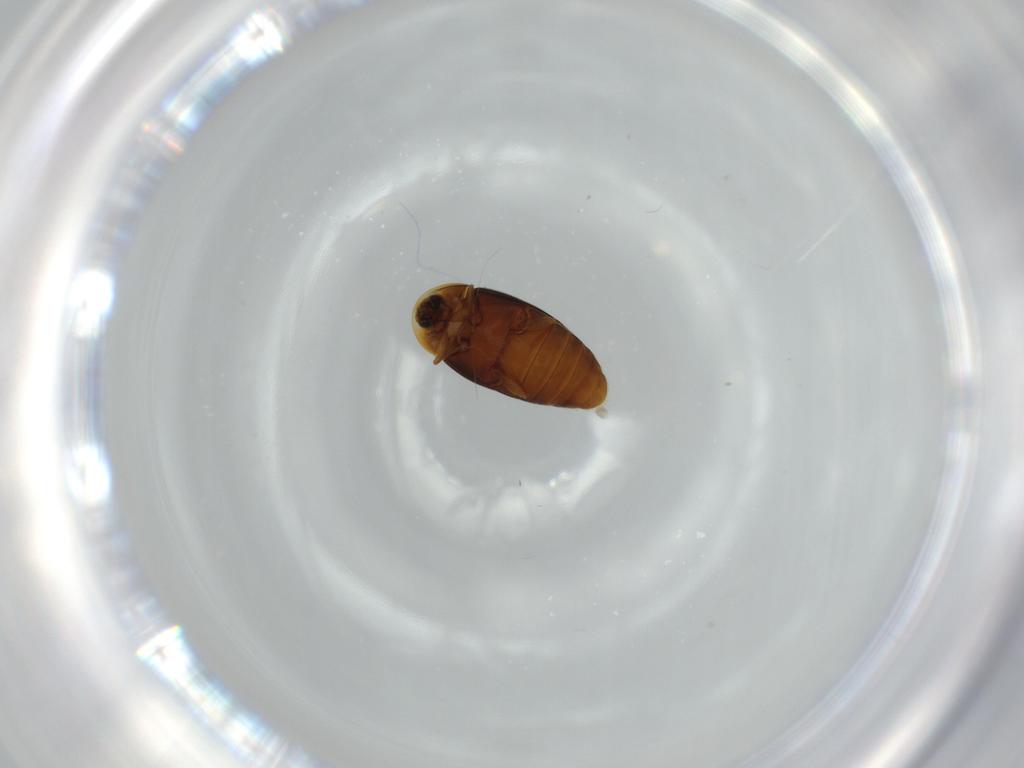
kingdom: Animalia
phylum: Arthropoda
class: Insecta
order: Coleoptera
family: Corylophidae
